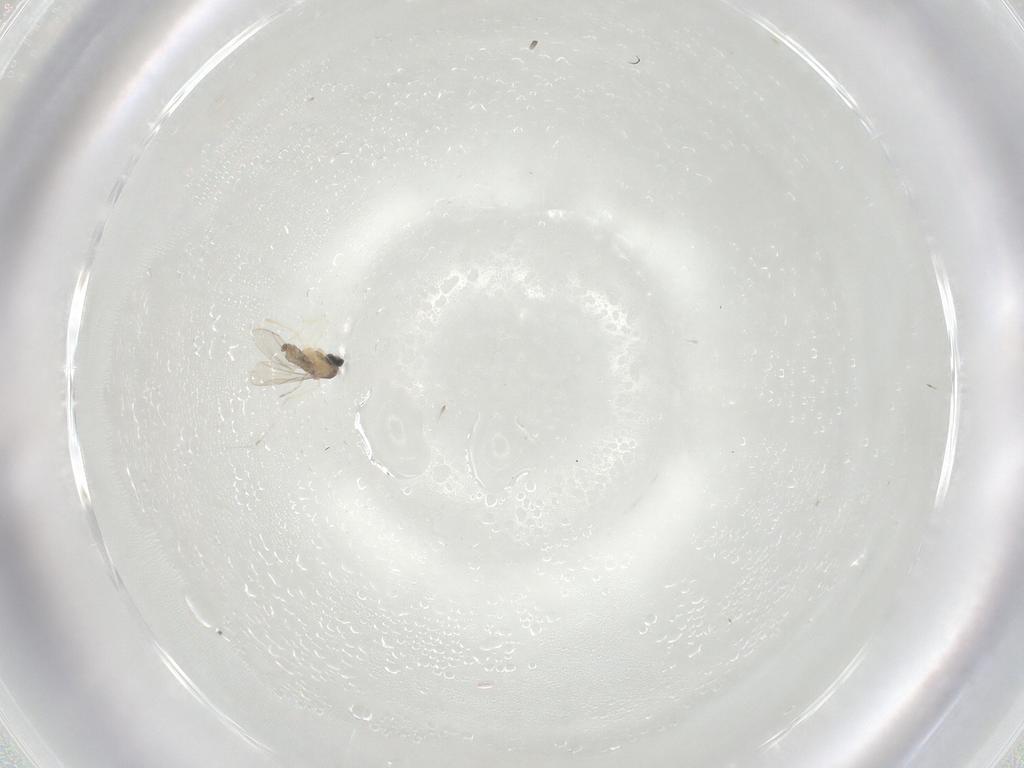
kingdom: Animalia
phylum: Arthropoda
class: Insecta
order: Diptera
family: Cecidomyiidae
